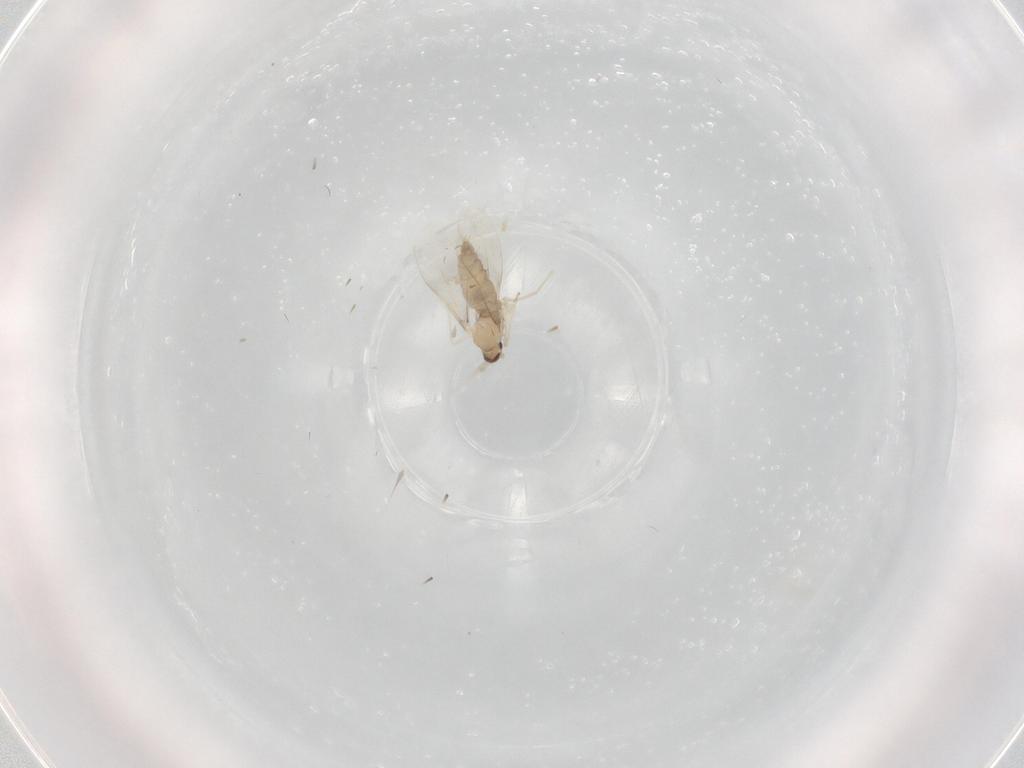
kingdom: Animalia
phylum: Arthropoda
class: Insecta
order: Diptera
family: Cecidomyiidae
